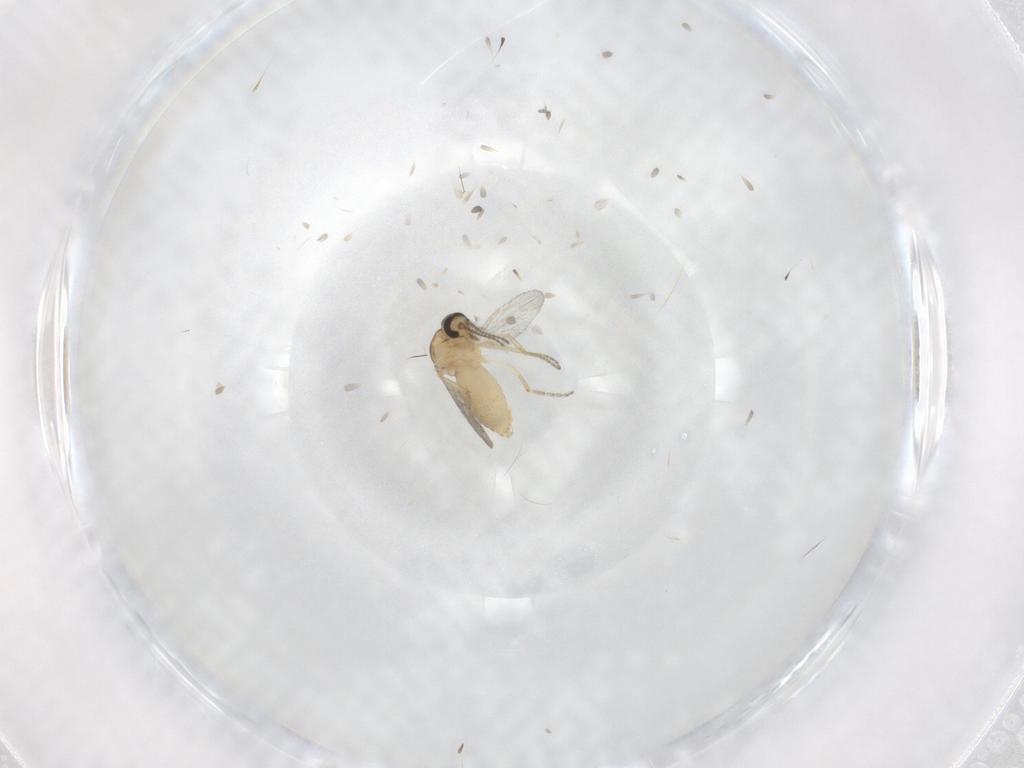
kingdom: Animalia
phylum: Arthropoda
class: Insecta
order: Diptera
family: Ceratopogonidae
